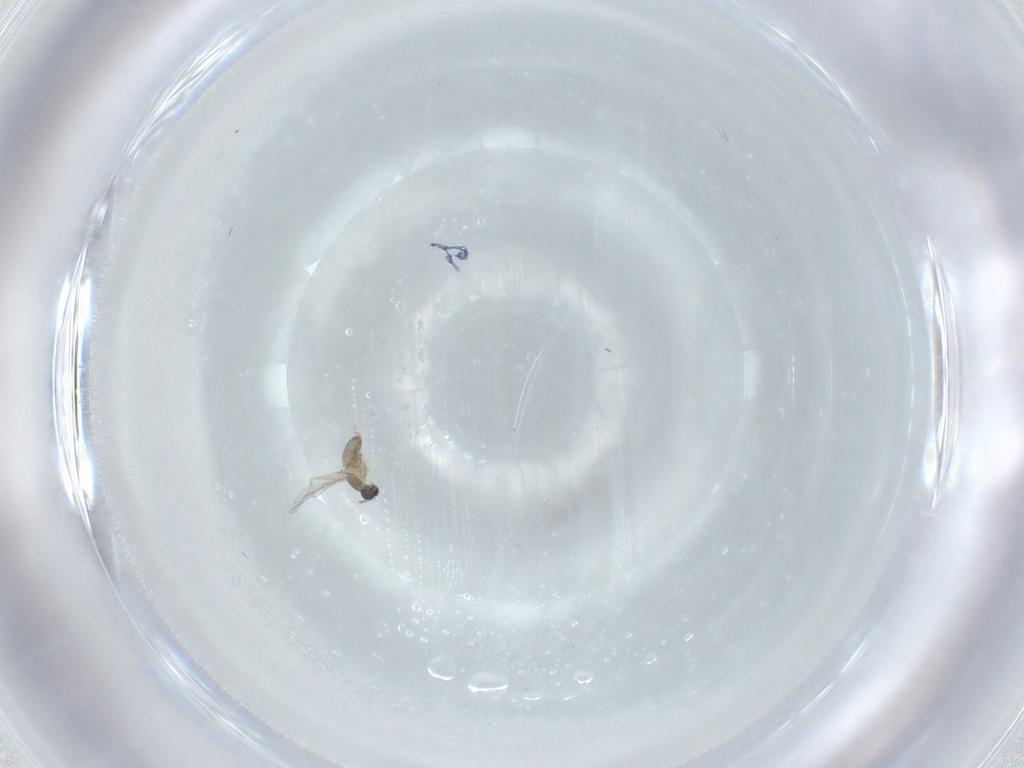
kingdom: Animalia
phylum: Arthropoda
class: Insecta
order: Diptera
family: Cecidomyiidae
